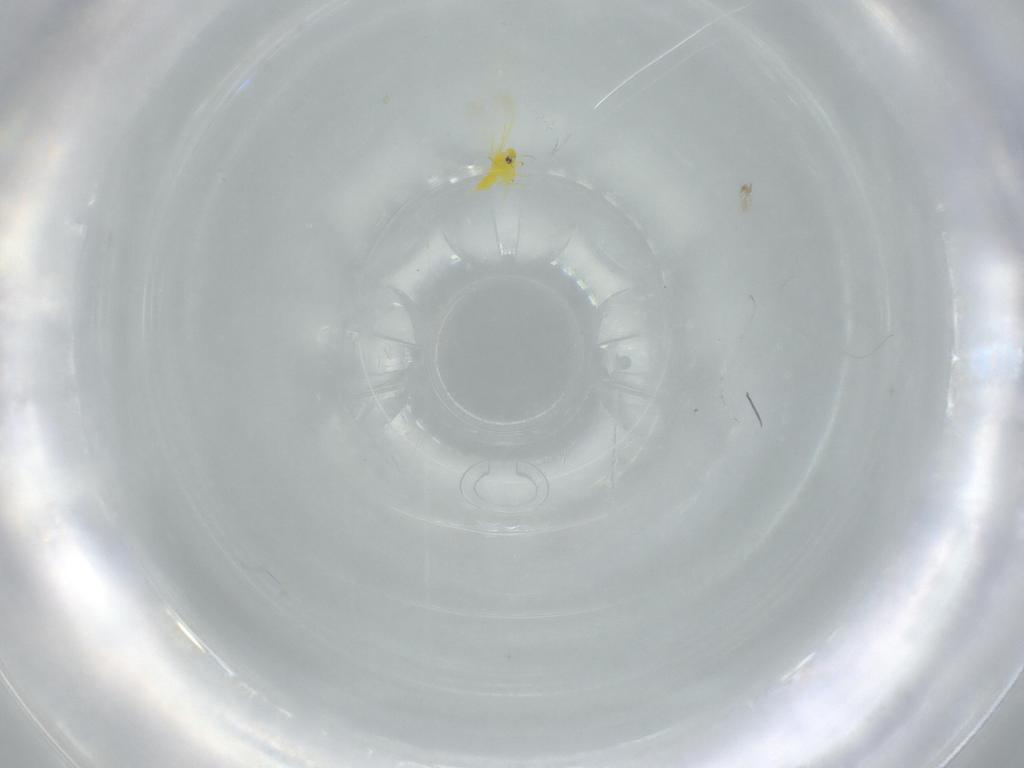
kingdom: Animalia
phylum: Arthropoda
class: Insecta
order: Hemiptera
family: Aleyrodidae
